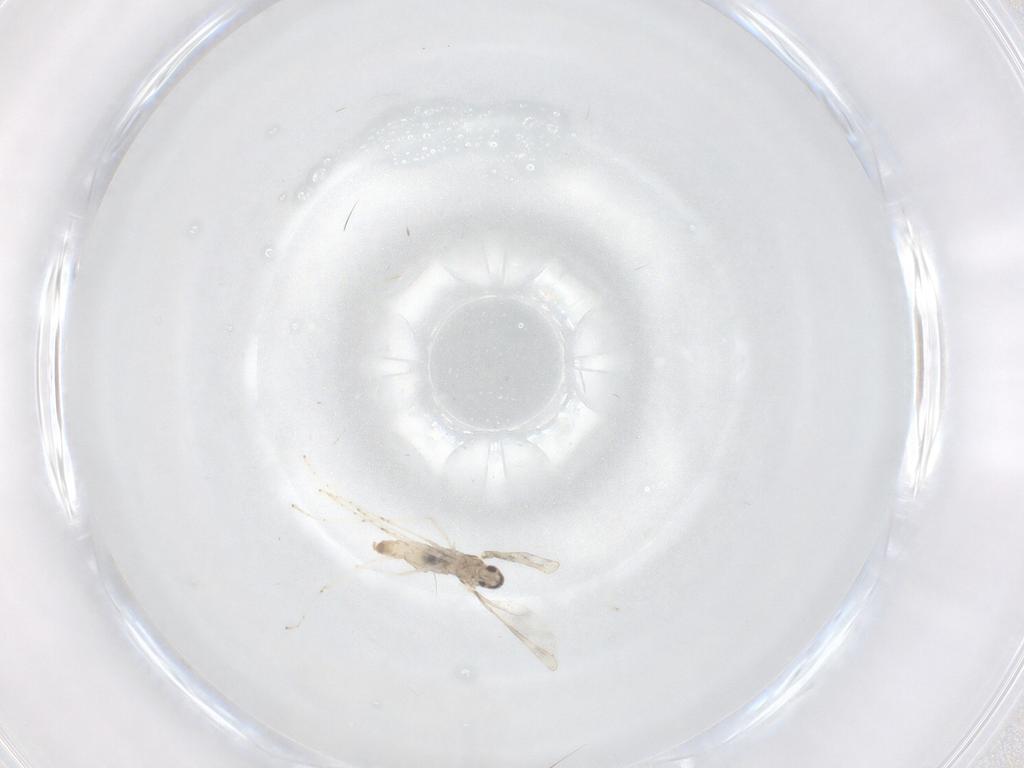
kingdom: Animalia
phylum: Arthropoda
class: Insecta
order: Diptera
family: Cecidomyiidae
